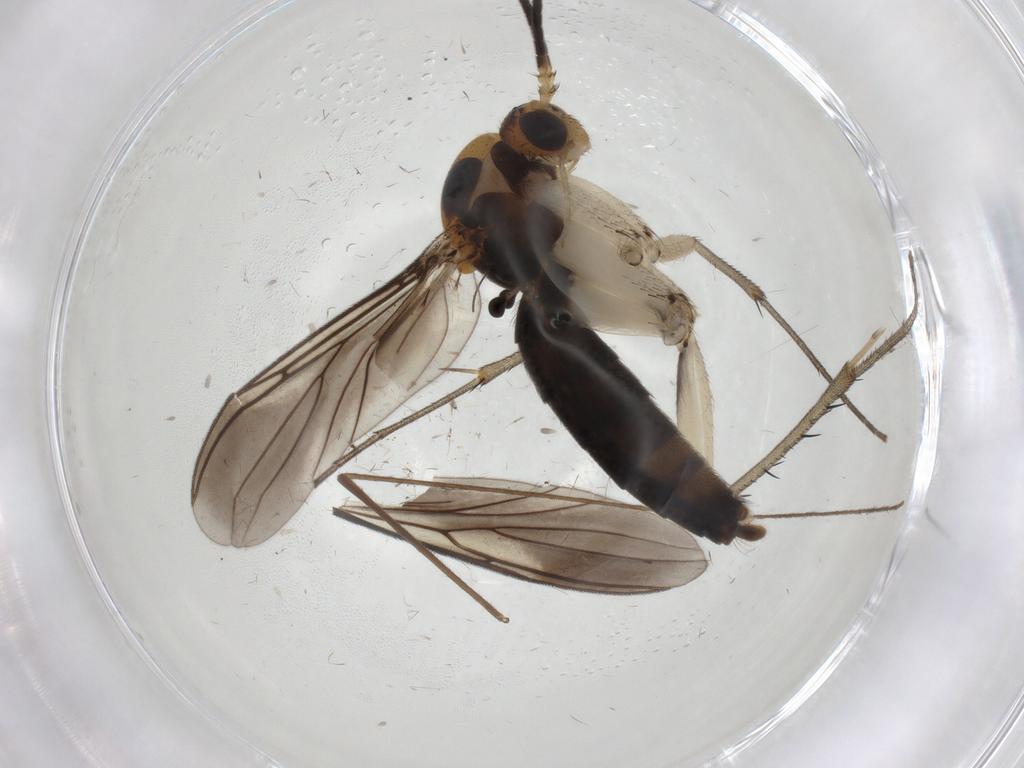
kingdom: Animalia
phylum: Arthropoda
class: Insecta
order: Diptera
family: Mycetophilidae
